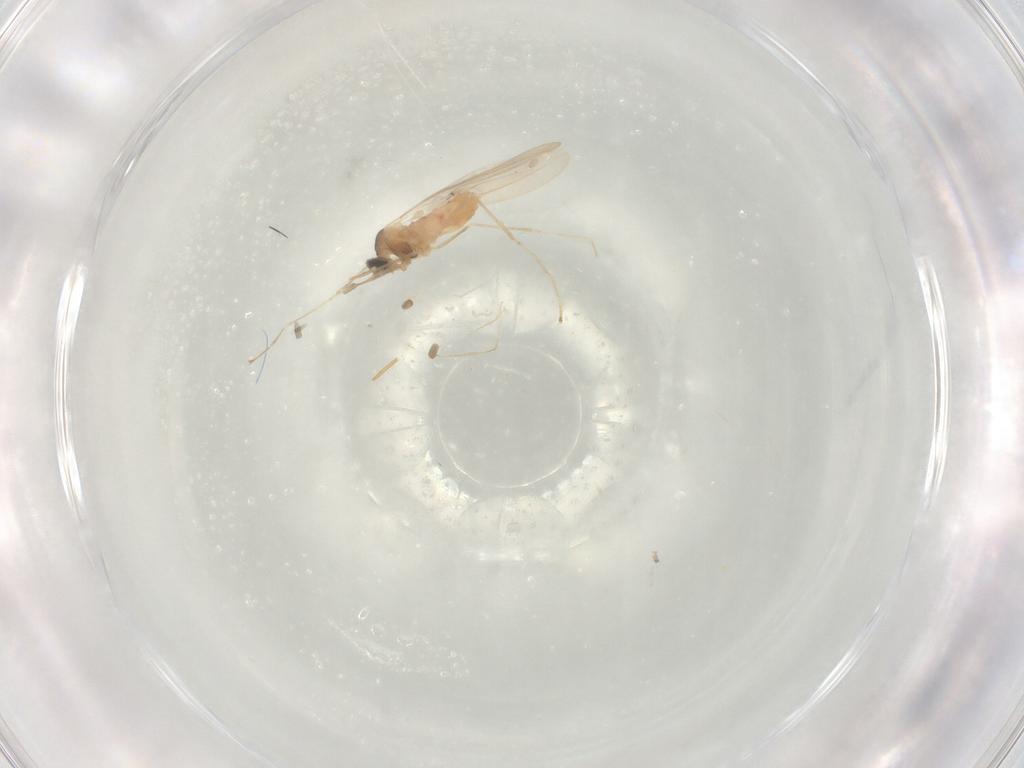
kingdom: Animalia
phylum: Arthropoda
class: Insecta
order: Diptera
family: Cecidomyiidae
